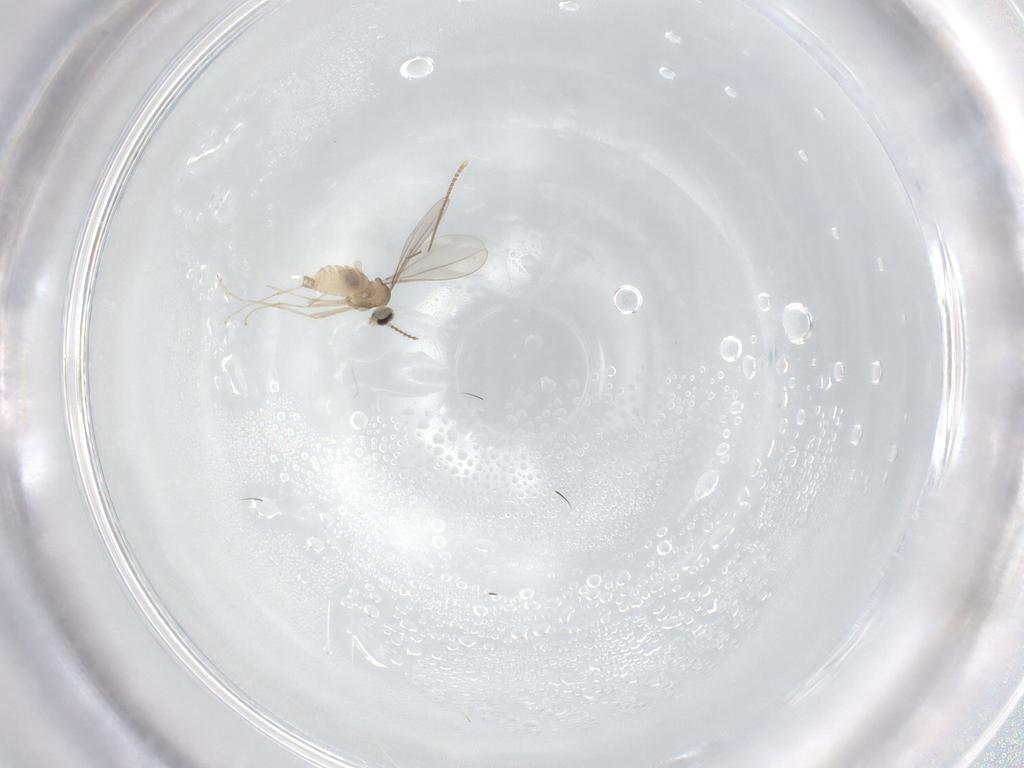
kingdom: Animalia
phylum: Arthropoda
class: Insecta
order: Diptera
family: Cecidomyiidae
